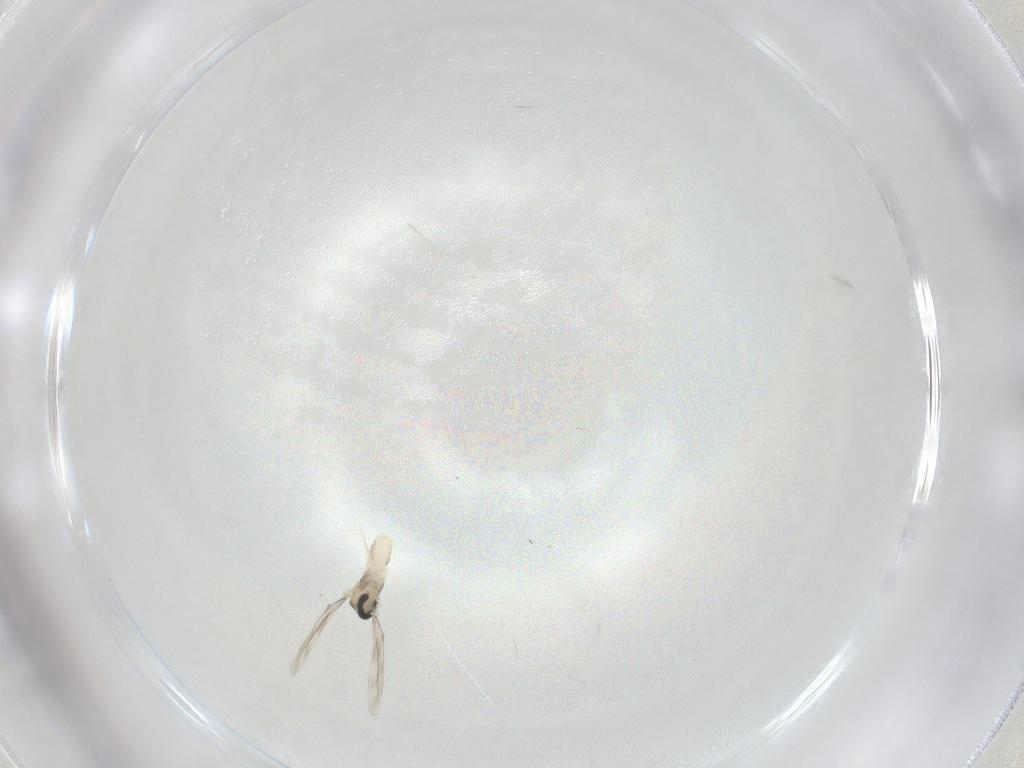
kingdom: Animalia
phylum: Arthropoda
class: Insecta
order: Diptera
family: Cecidomyiidae
